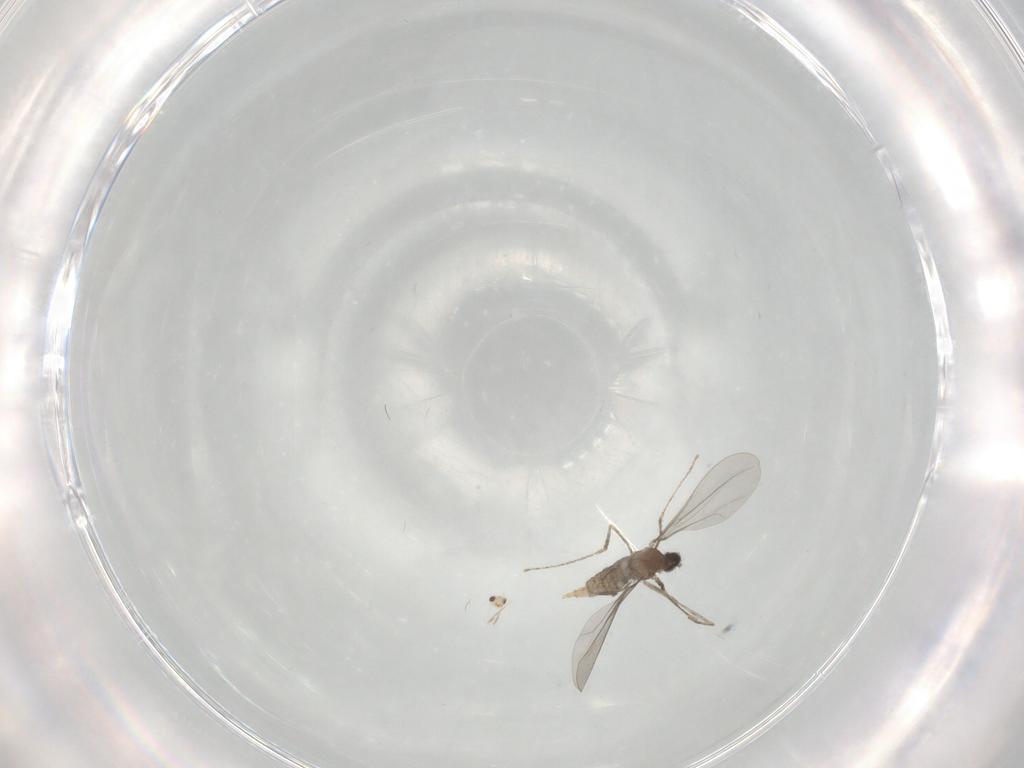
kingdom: Animalia
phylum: Arthropoda
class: Insecta
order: Diptera
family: Cecidomyiidae
